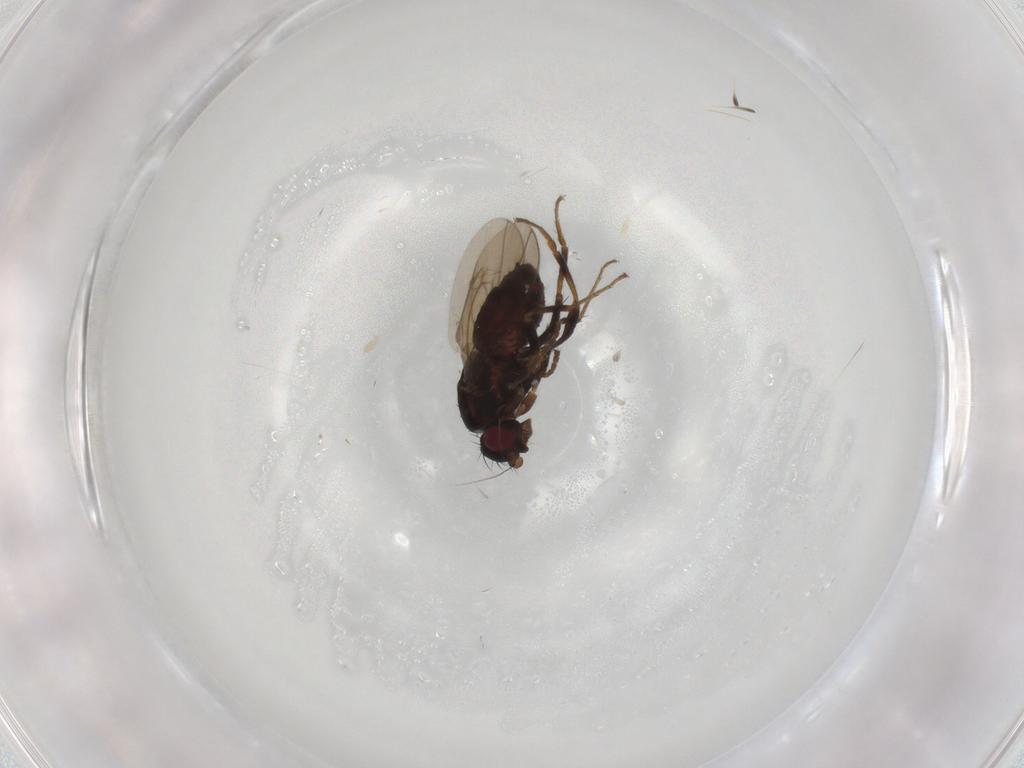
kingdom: Animalia
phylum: Arthropoda
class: Insecta
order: Diptera
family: Sphaeroceridae
